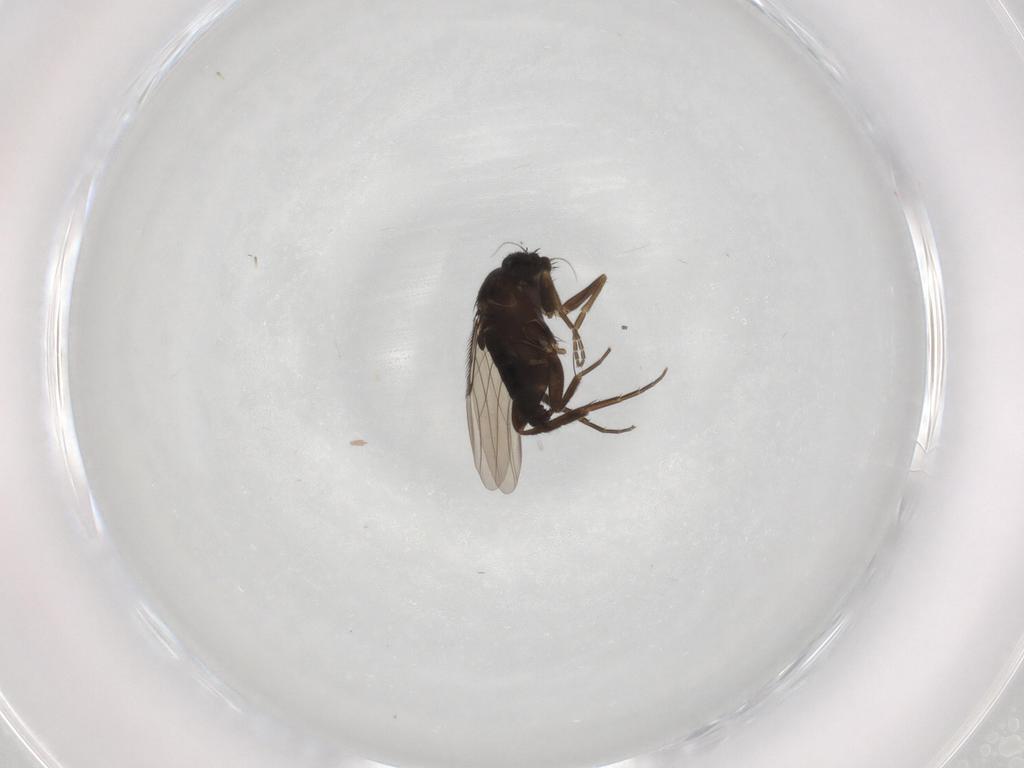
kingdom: Animalia
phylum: Arthropoda
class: Insecta
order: Diptera
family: Phoridae
